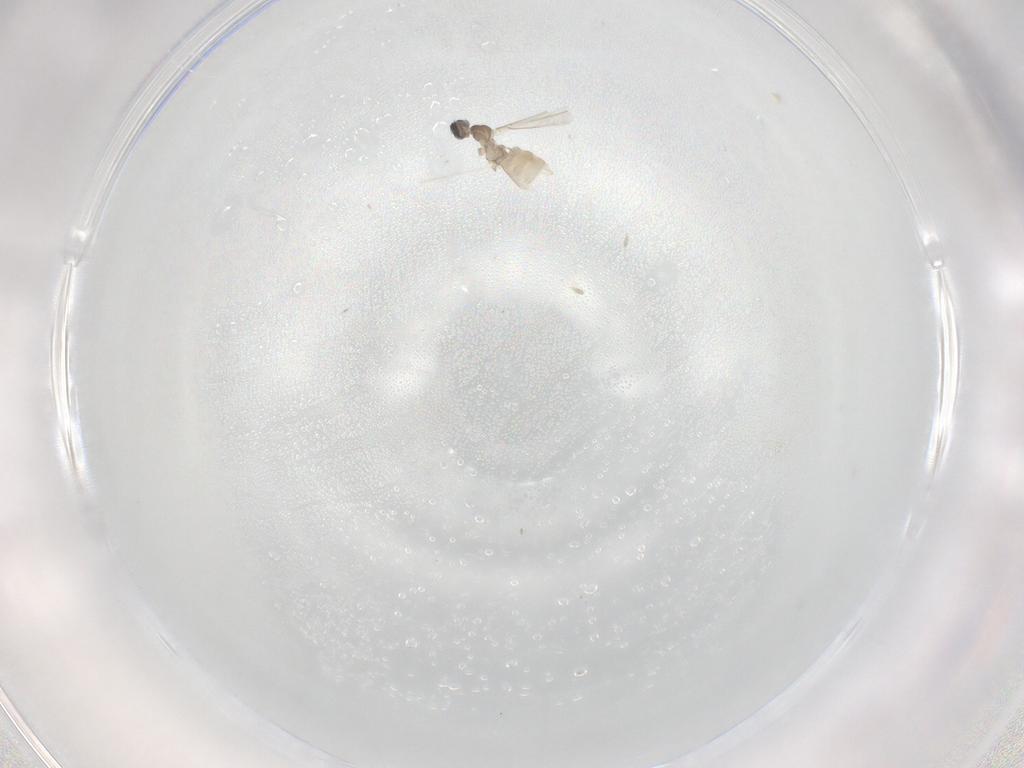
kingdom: Animalia
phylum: Arthropoda
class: Insecta
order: Diptera
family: Cecidomyiidae
